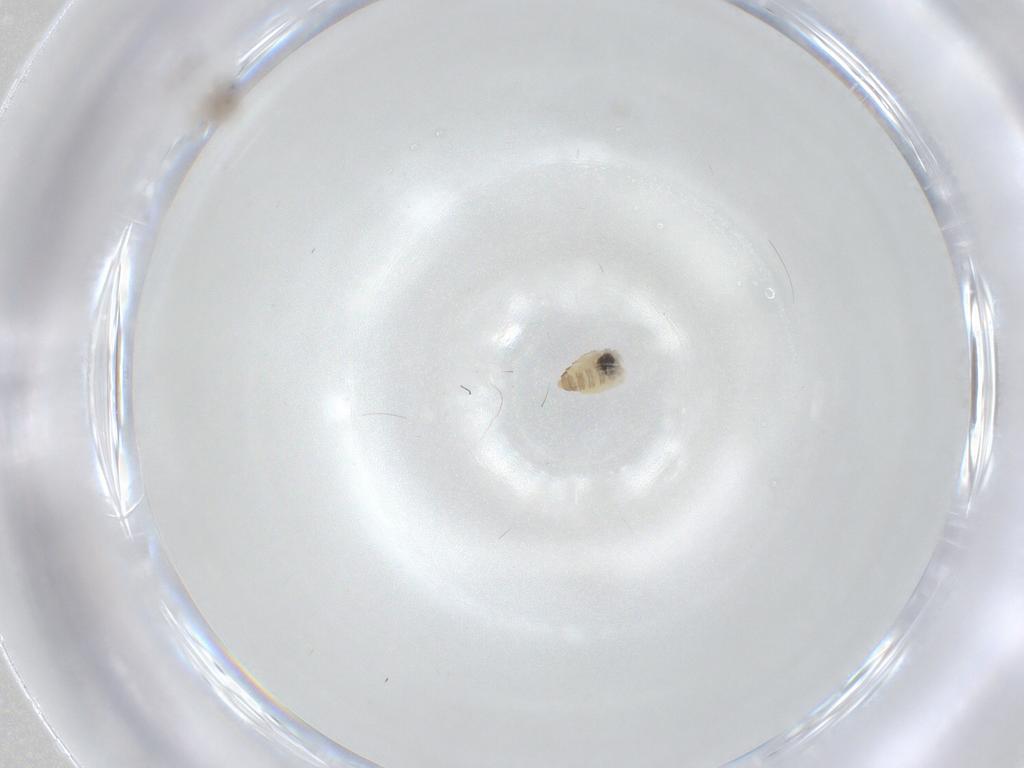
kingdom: Animalia
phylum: Arthropoda
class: Insecta
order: Diptera
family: Cecidomyiidae
